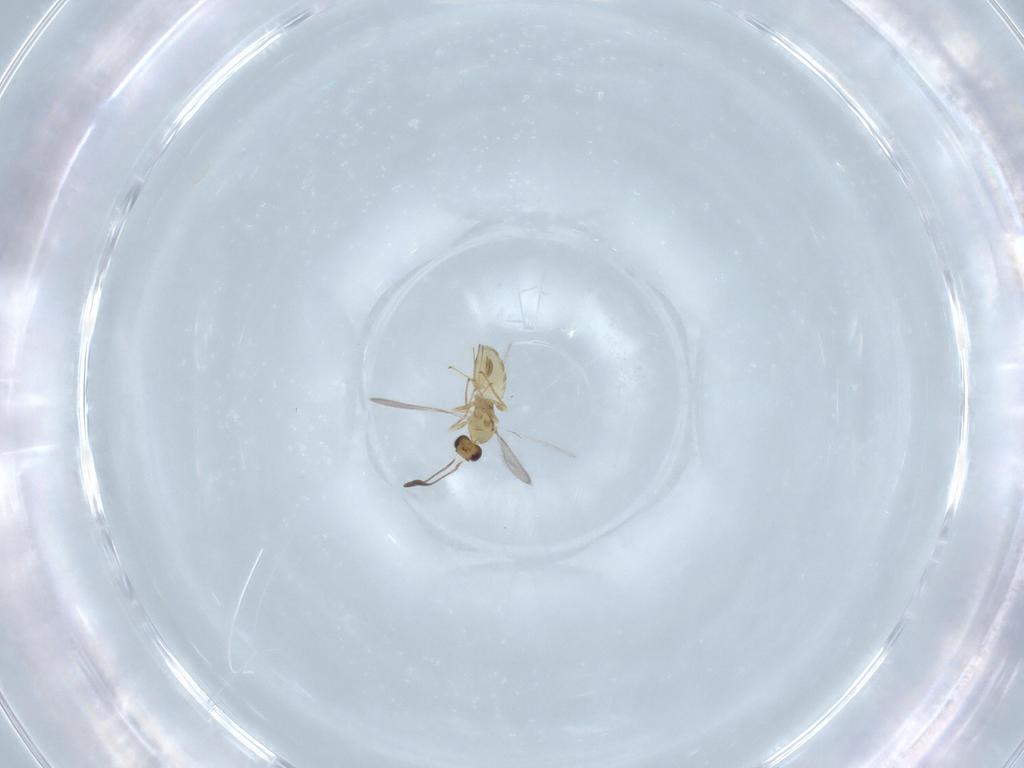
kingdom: Animalia
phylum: Arthropoda
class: Insecta
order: Hymenoptera
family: Mymaridae
